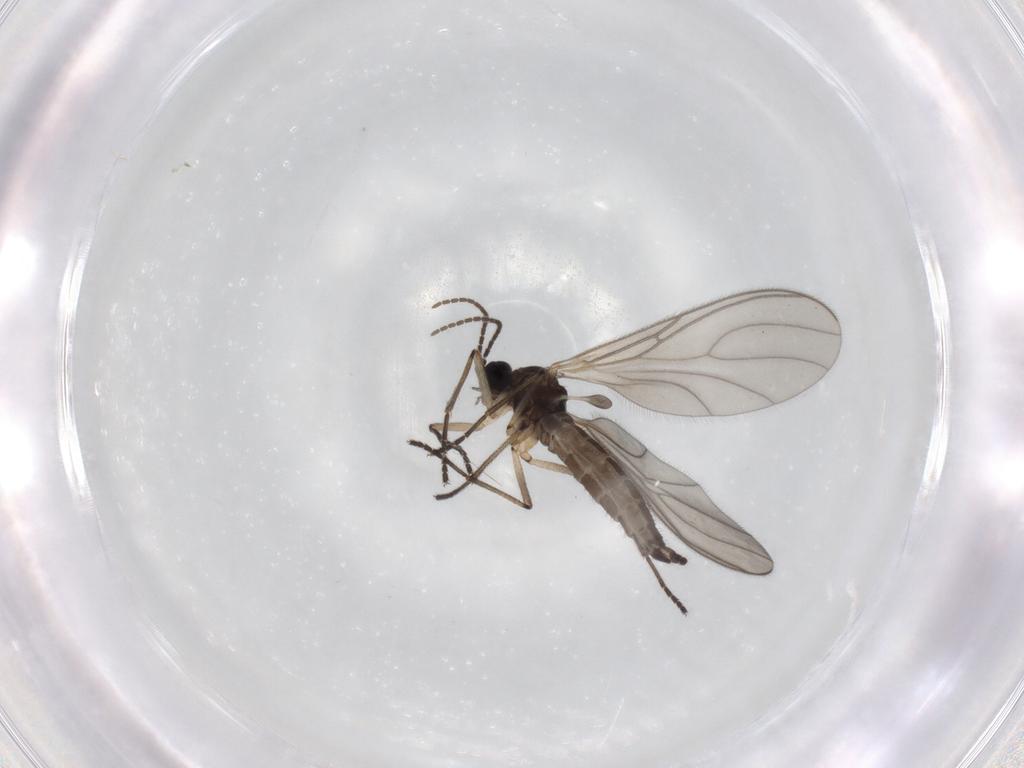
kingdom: Animalia
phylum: Arthropoda
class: Insecta
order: Diptera
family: Sciaridae
